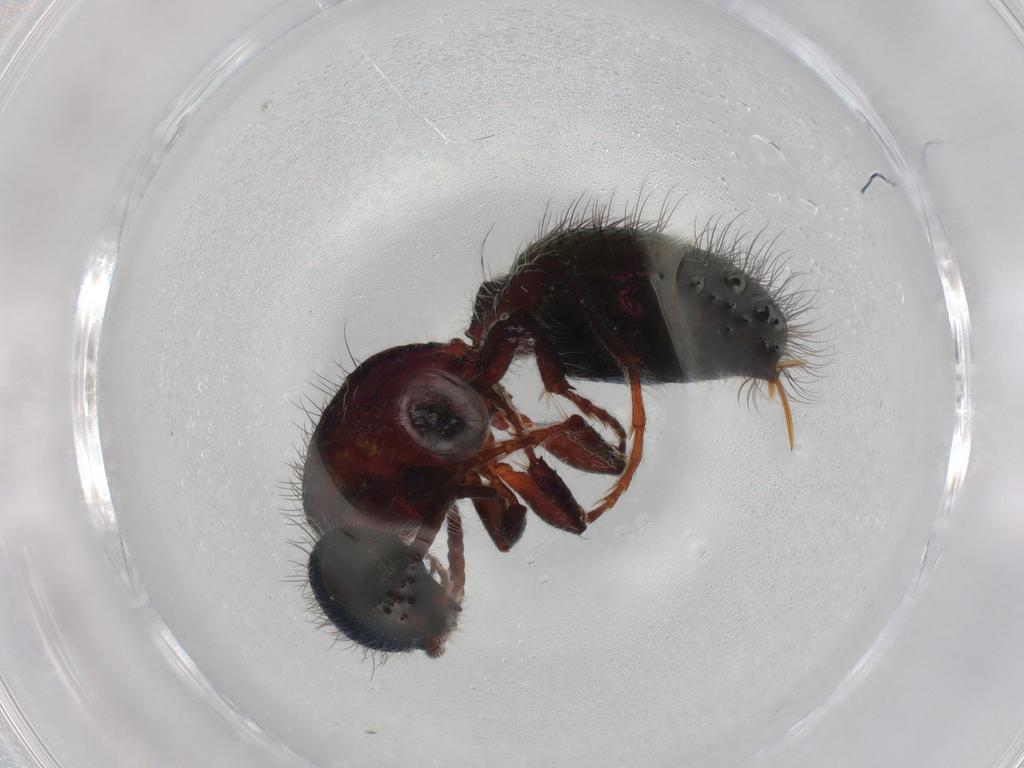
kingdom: Animalia
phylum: Arthropoda
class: Insecta
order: Hymenoptera
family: Mutillidae
